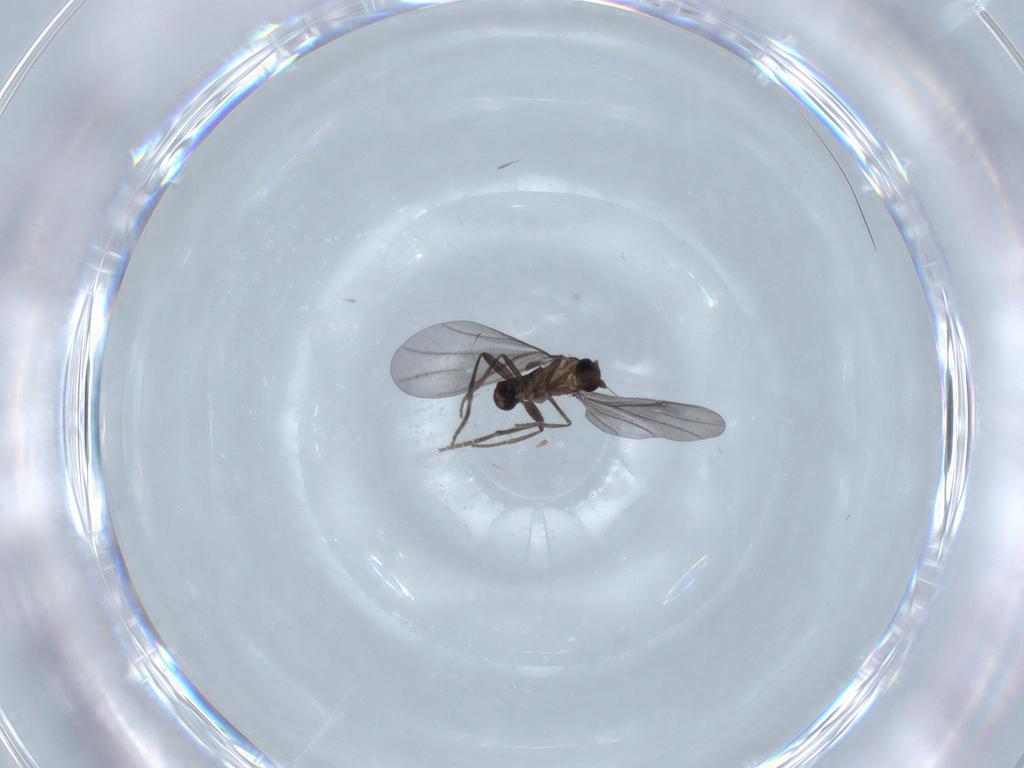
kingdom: Animalia
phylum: Arthropoda
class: Insecta
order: Diptera
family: Phoridae
